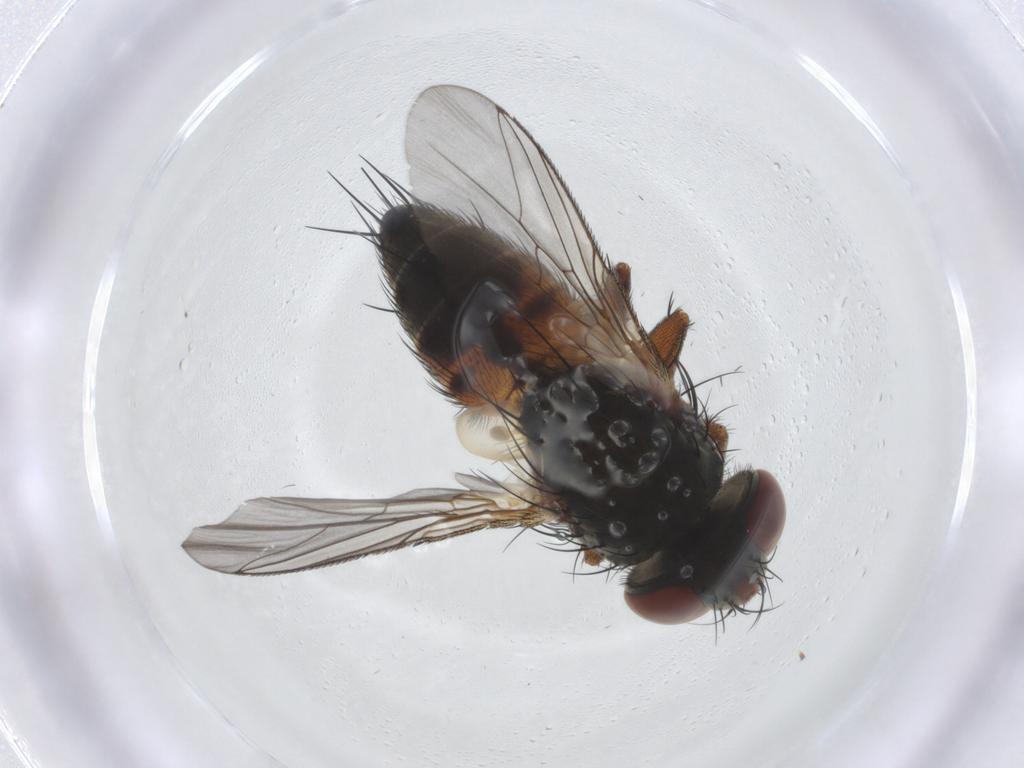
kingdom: Animalia
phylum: Arthropoda
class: Insecta
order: Diptera
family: Sarcophagidae
